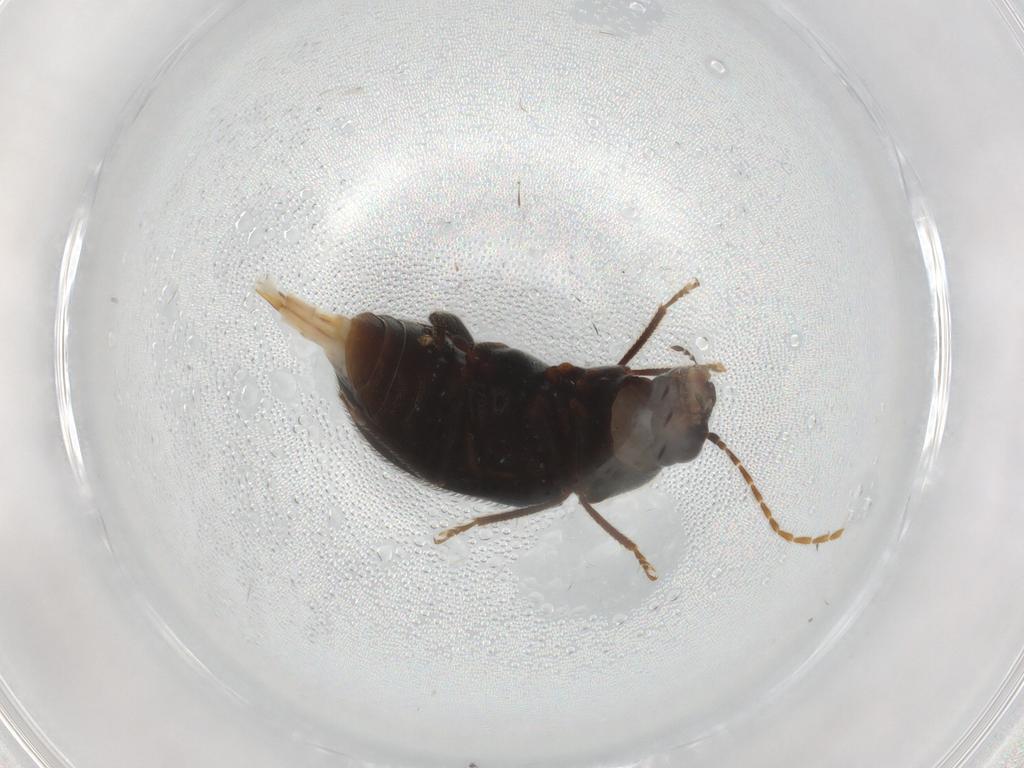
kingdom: Animalia
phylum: Arthropoda
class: Insecta
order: Coleoptera
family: Ptilodactylidae
